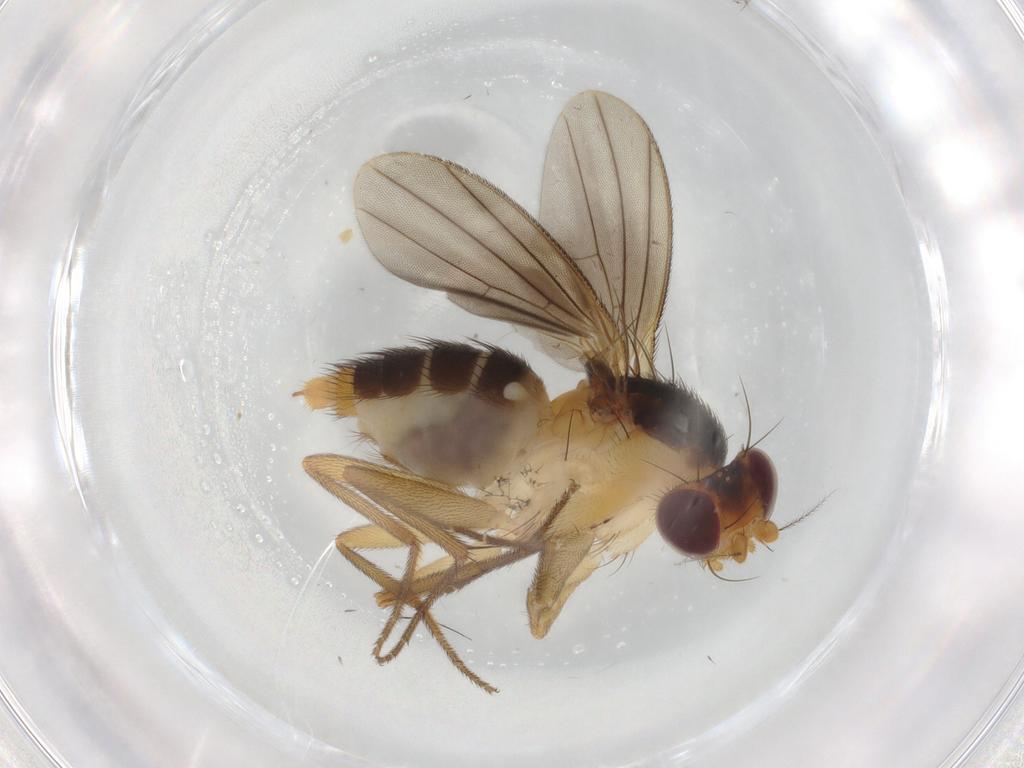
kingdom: Animalia
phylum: Arthropoda
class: Insecta
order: Diptera
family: Clusiidae
